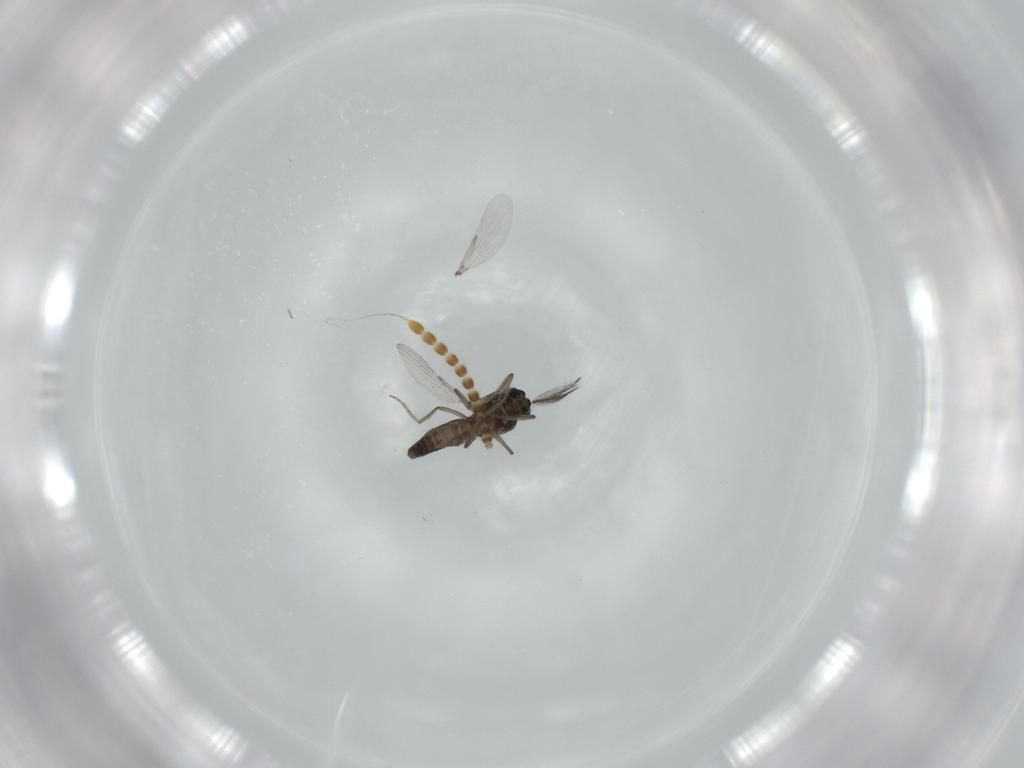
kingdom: Animalia
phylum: Arthropoda
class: Insecta
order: Diptera
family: Ceratopogonidae
